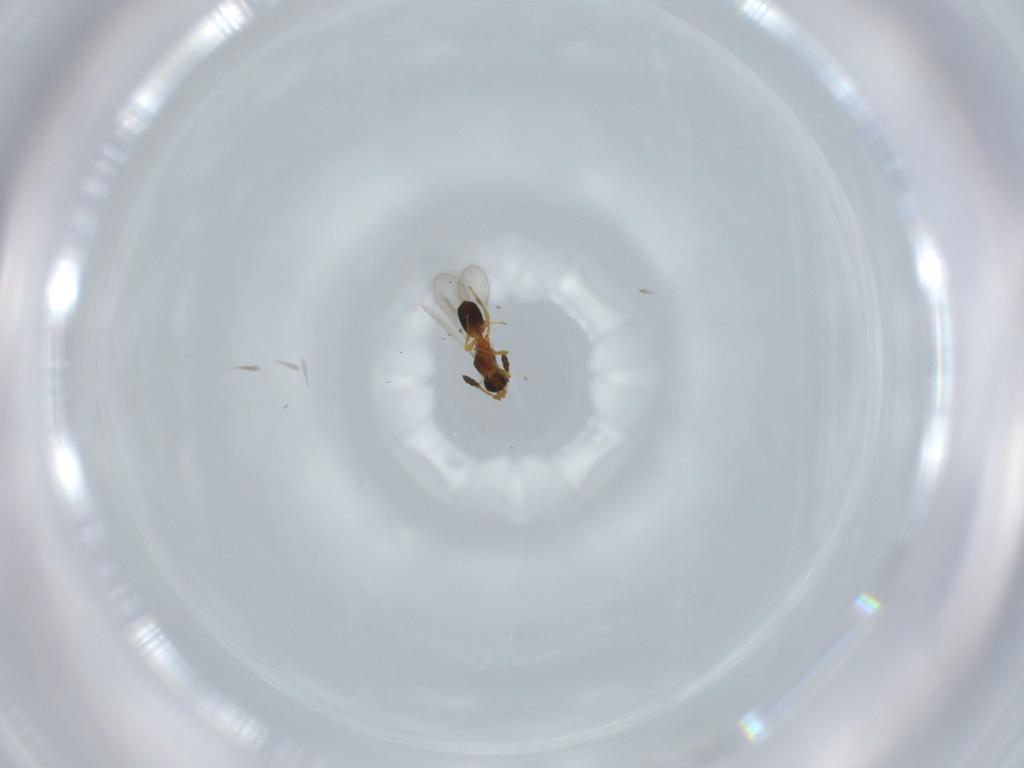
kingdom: Animalia
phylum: Arthropoda
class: Insecta
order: Hymenoptera
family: Diapriidae
